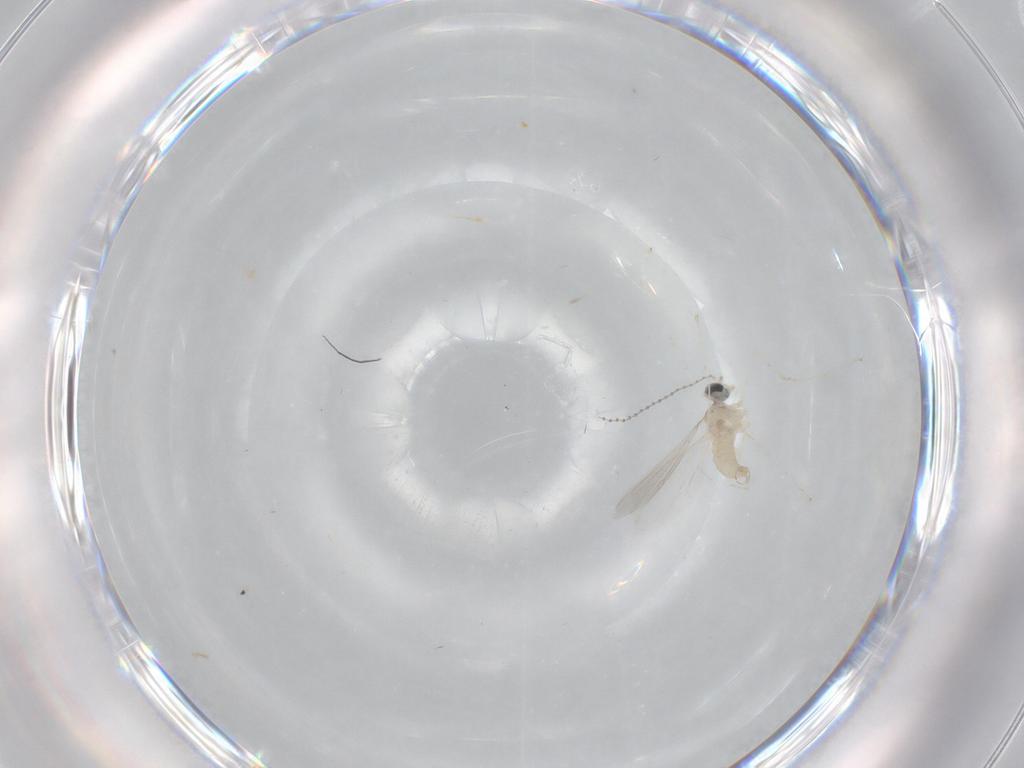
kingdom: Animalia
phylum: Arthropoda
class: Insecta
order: Diptera
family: Cecidomyiidae
